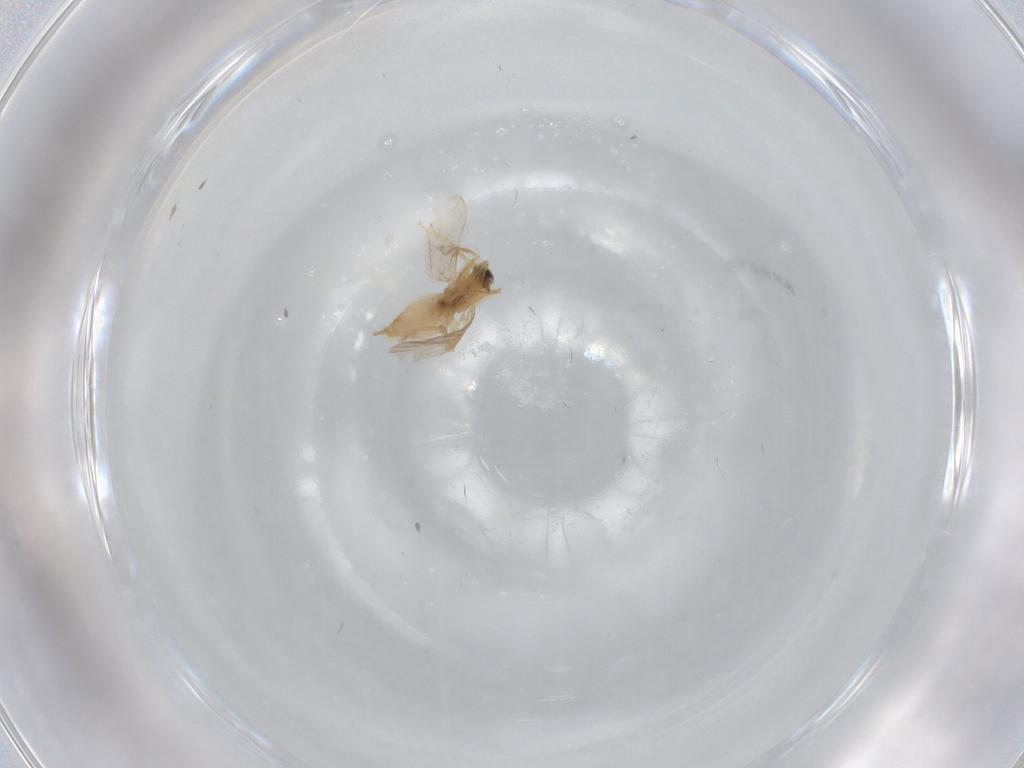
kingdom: Animalia
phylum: Arthropoda
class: Insecta
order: Diptera
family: Hybotidae
